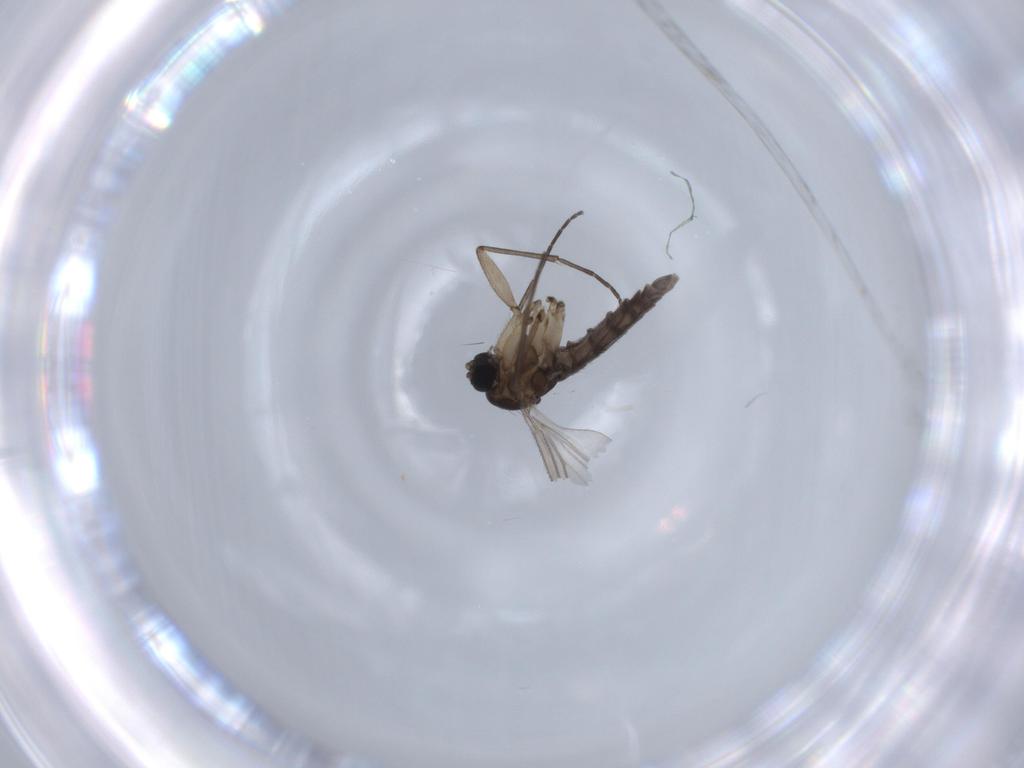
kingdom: Animalia
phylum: Arthropoda
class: Insecta
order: Diptera
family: Sciaridae
